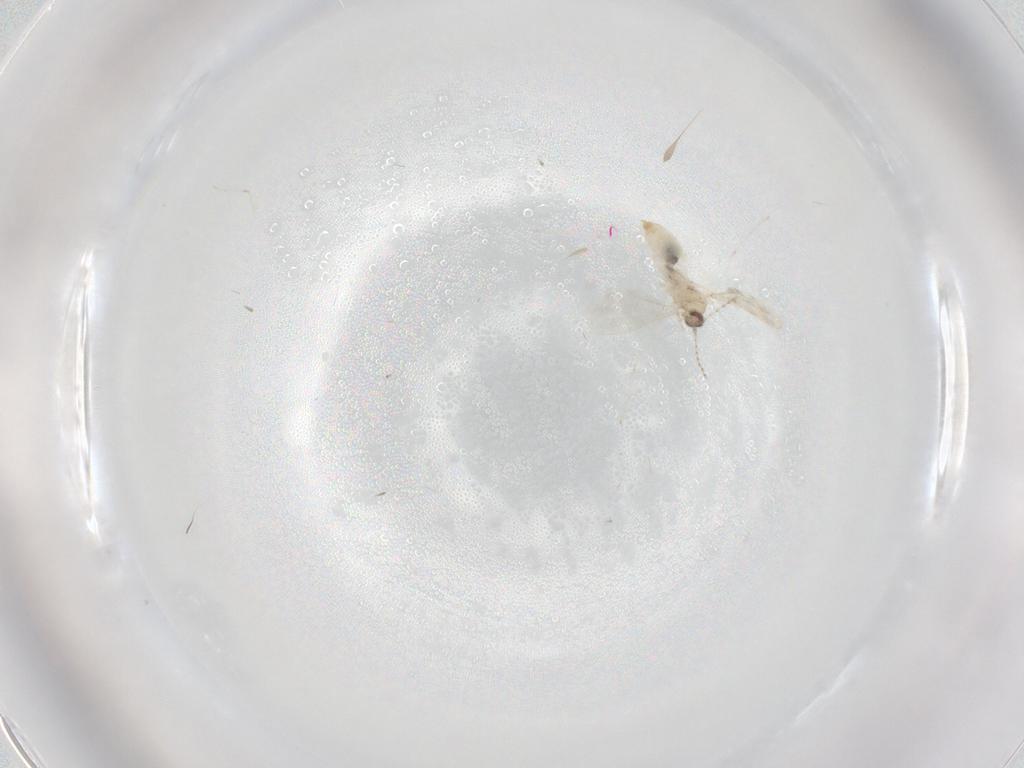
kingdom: Animalia
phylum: Arthropoda
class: Insecta
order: Diptera
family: Cecidomyiidae
